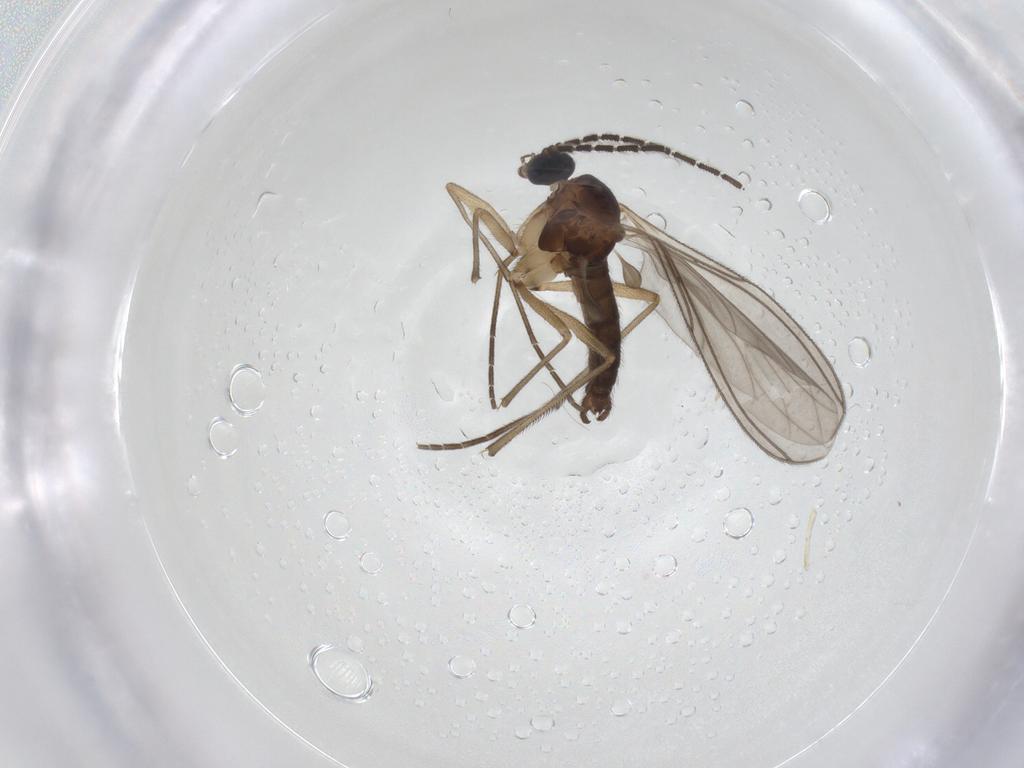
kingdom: Animalia
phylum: Arthropoda
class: Insecta
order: Diptera
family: Sciaridae
